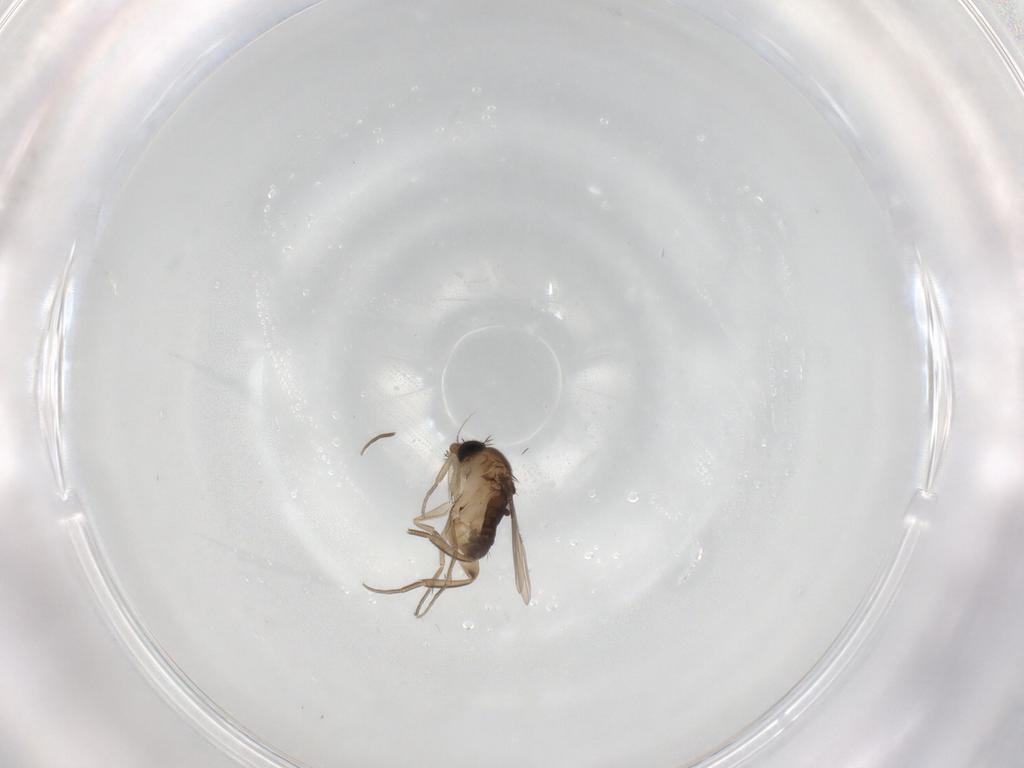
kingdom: Animalia
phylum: Arthropoda
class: Insecta
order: Diptera
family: Phoridae
